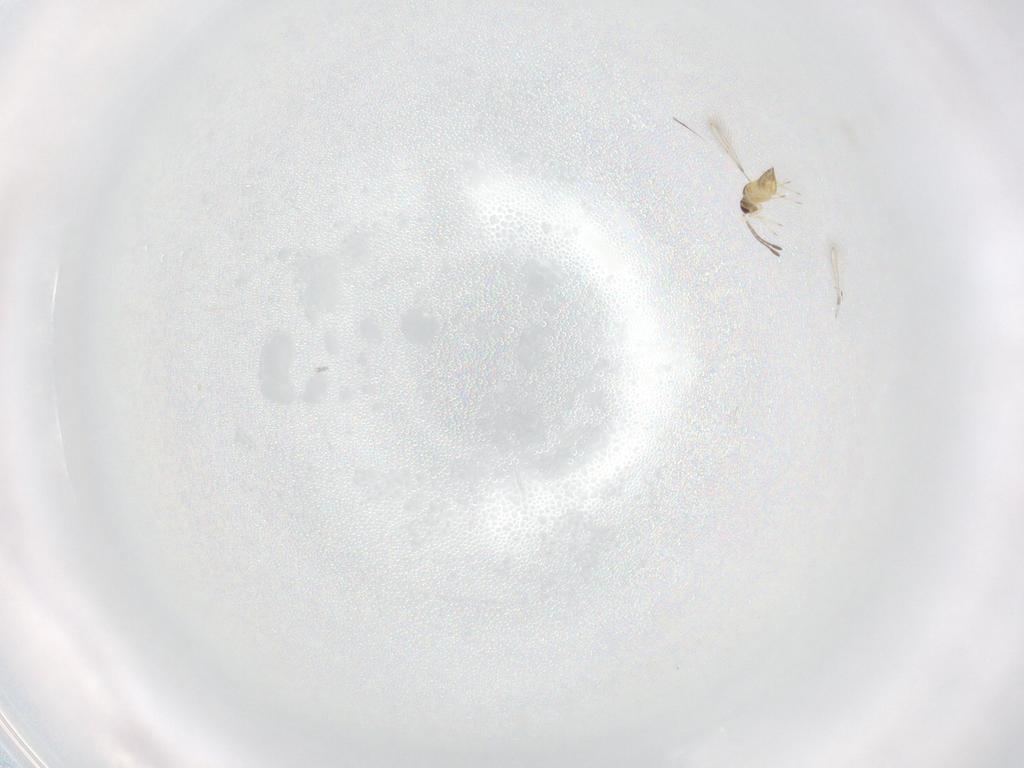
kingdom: Animalia
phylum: Arthropoda
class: Insecta
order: Hymenoptera
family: Mymaridae
